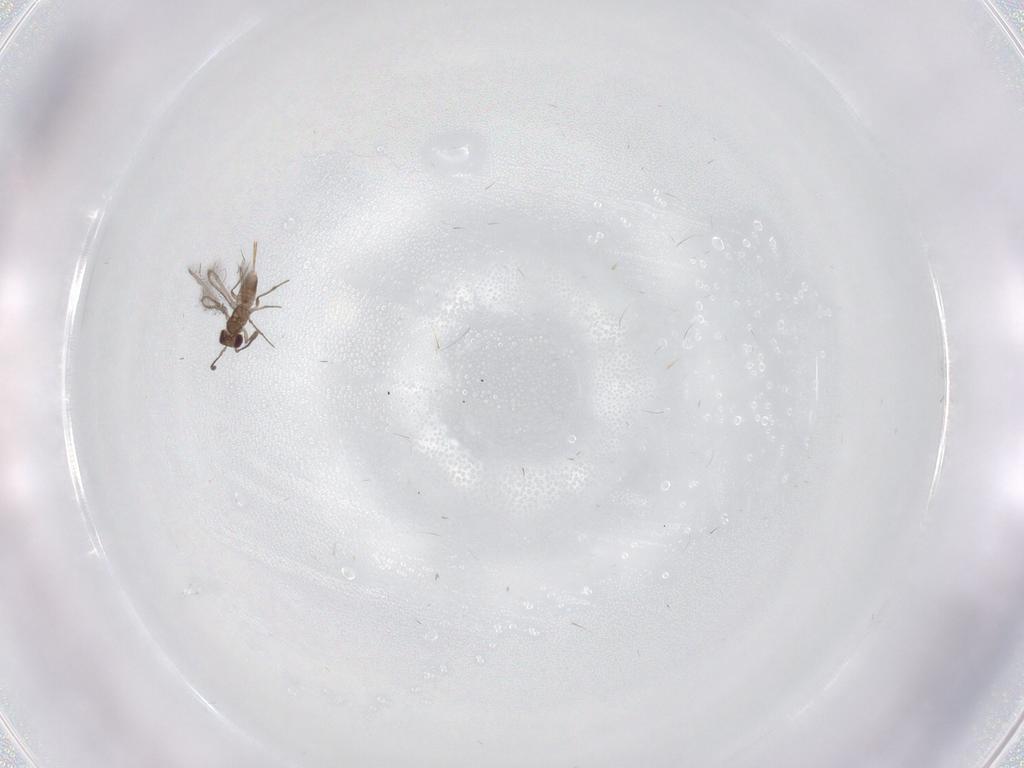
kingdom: Animalia
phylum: Arthropoda
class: Insecta
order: Hymenoptera
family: Mymaridae
